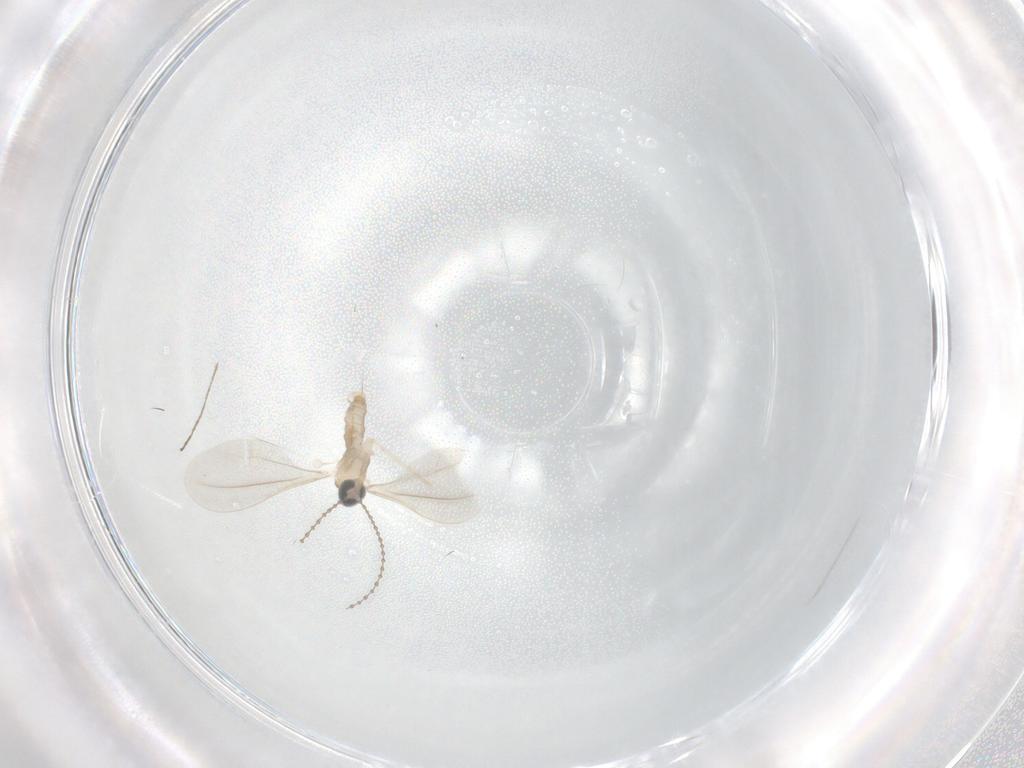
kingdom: Animalia
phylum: Arthropoda
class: Insecta
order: Diptera
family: Cecidomyiidae
